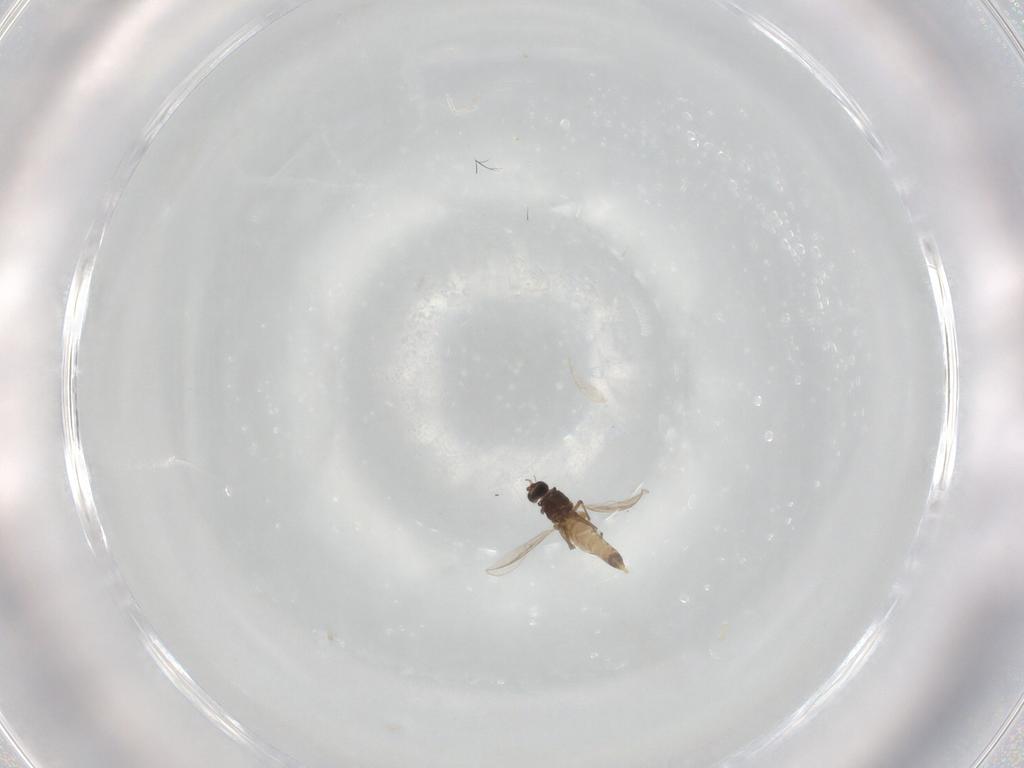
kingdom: Animalia
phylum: Arthropoda
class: Insecta
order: Diptera
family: Chironomidae
